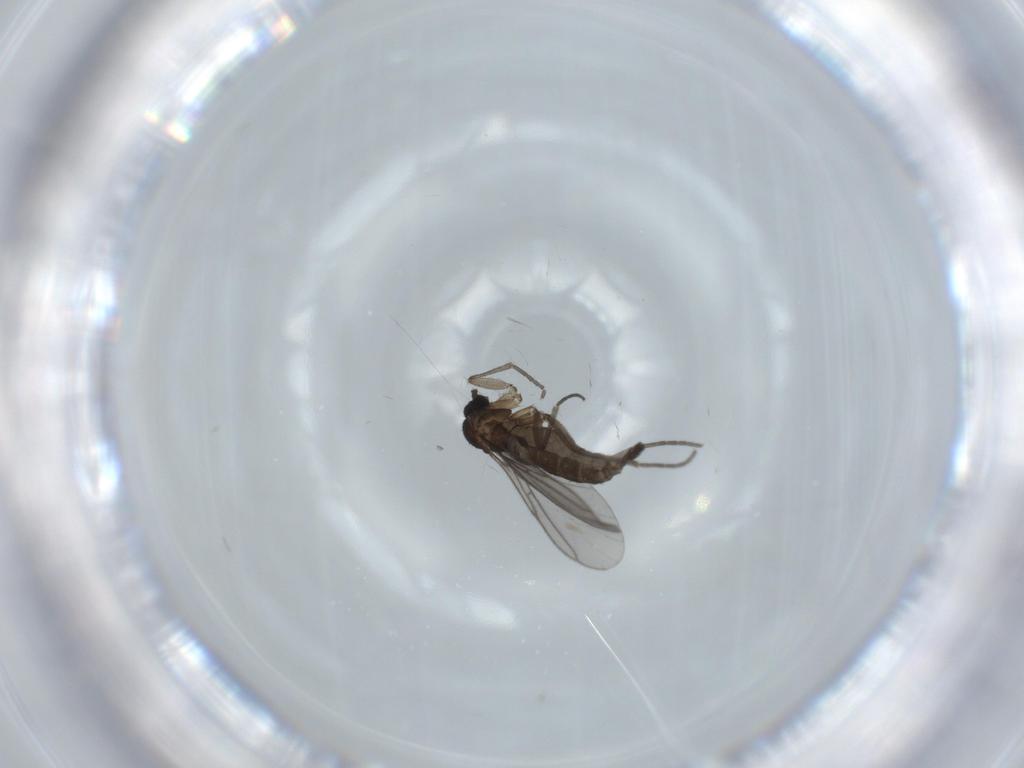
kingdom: Animalia
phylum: Arthropoda
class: Insecta
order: Diptera
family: Cecidomyiidae
